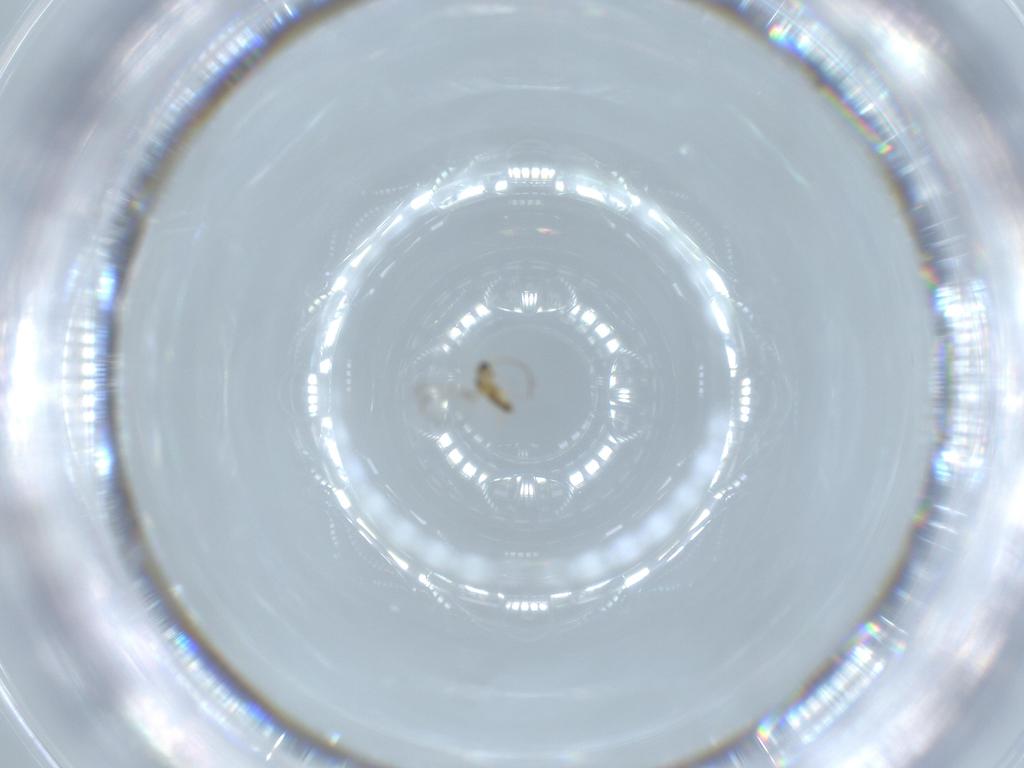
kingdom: Animalia
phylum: Arthropoda
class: Insecta
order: Hymenoptera
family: Mymaridae
